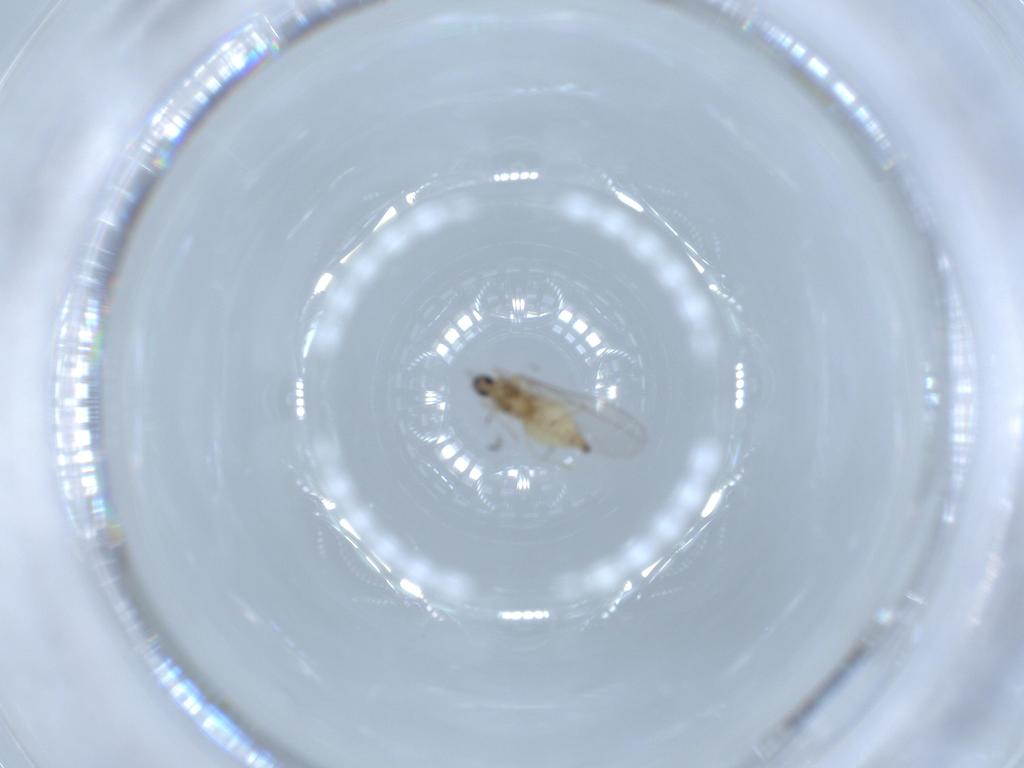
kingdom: Animalia
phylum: Arthropoda
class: Insecta
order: Diptera
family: Cecidomyiidae
